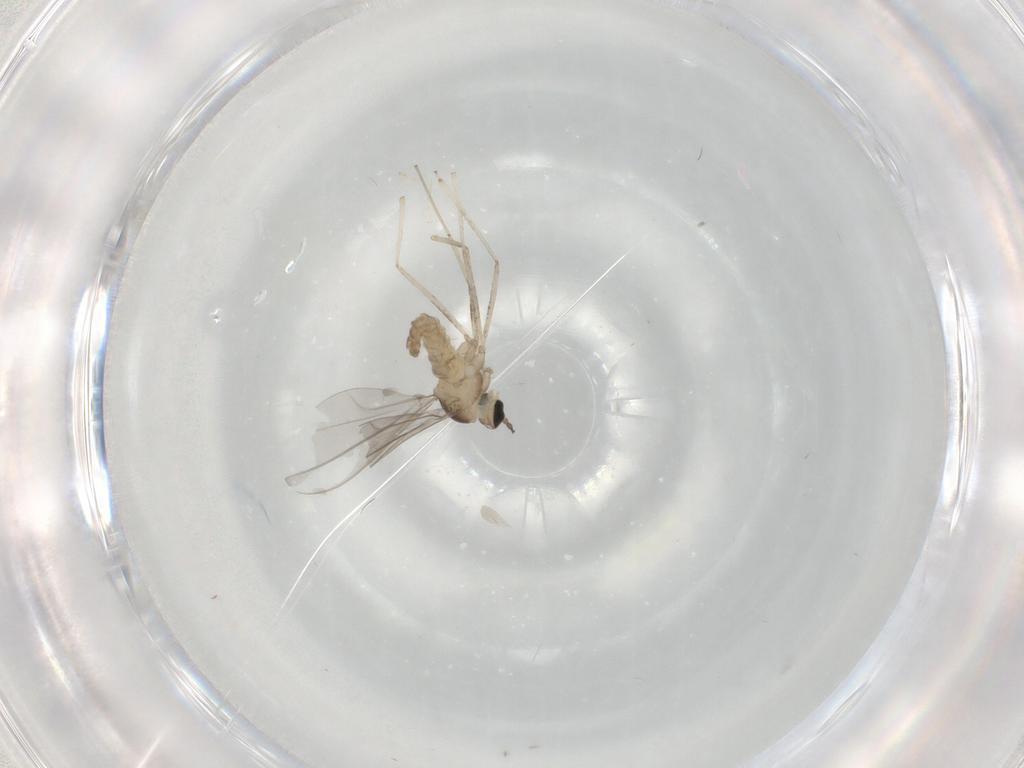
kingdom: Animalia
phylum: Arthropoda
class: Insecta
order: Diptera
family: Cecidomyiidae
